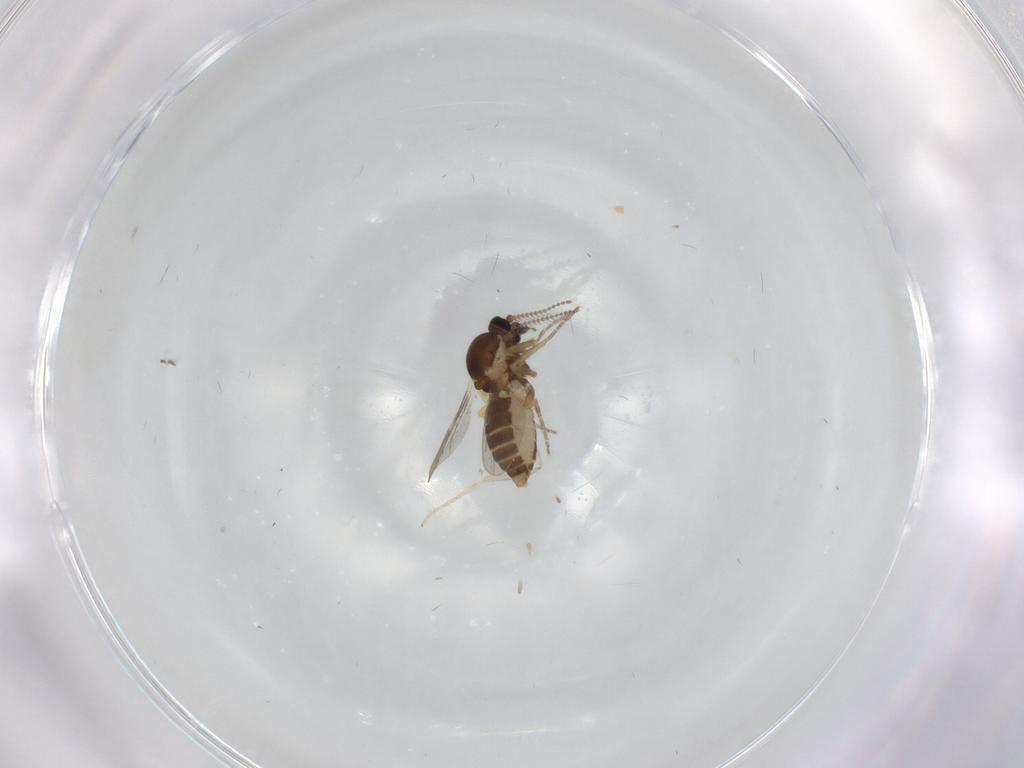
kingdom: Animalia
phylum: Arthropoda
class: Insecta
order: Diptera
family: Ceratopogonidae
